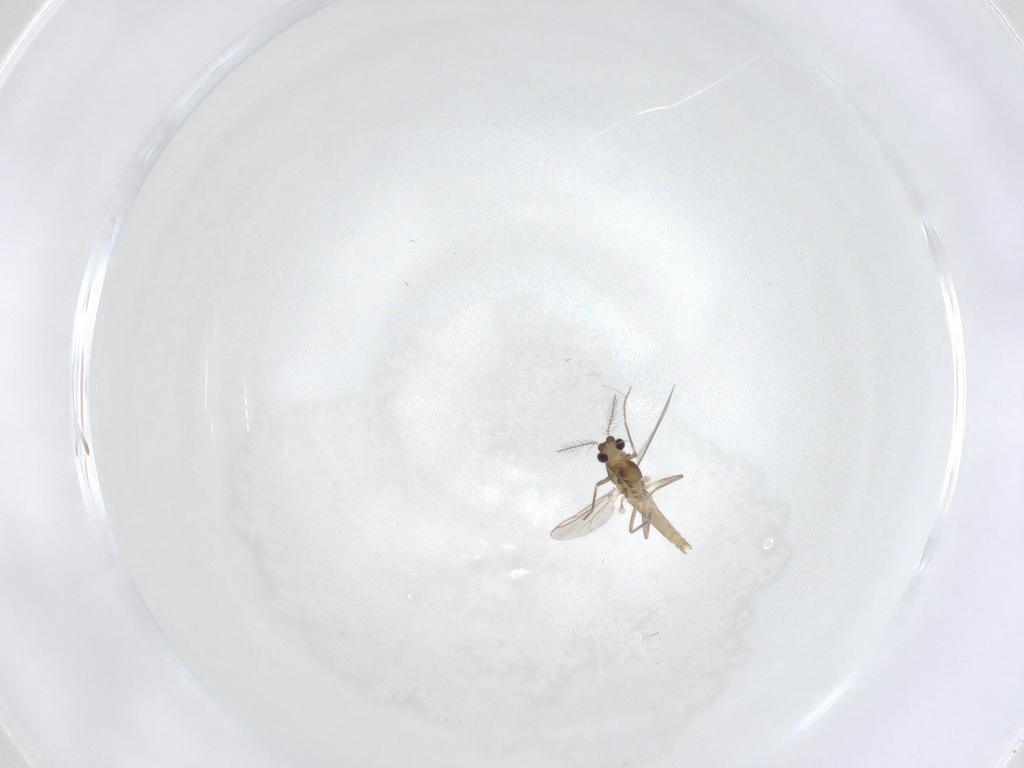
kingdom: Animalia
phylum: Arthropoda
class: Insecta
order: Diptera
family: Chironomidae
